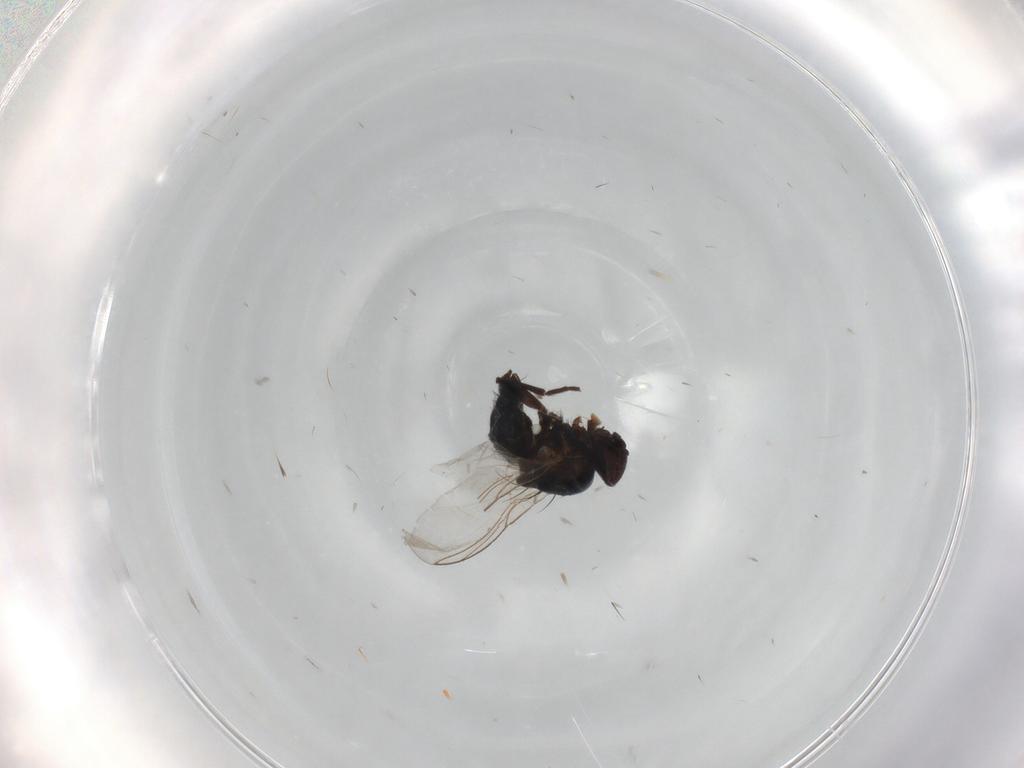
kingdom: Animalia
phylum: Arthropoda
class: Insecta
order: Diptera
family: Agromyzidae
